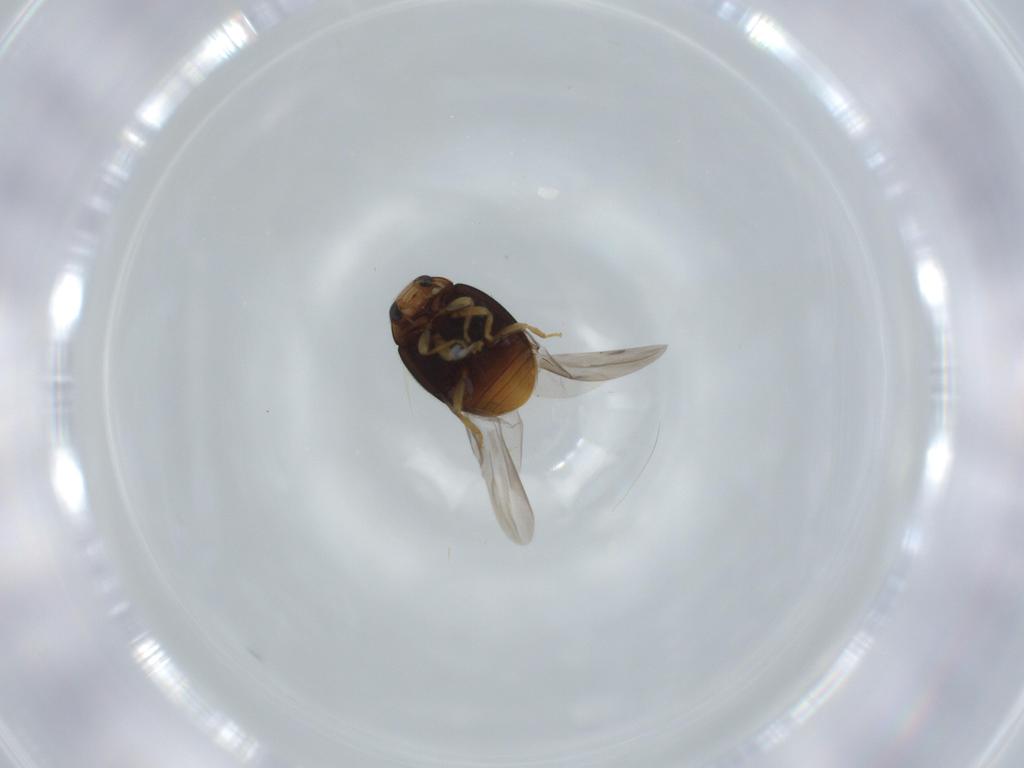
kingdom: Animalia
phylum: Arthropoda
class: Insecta
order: Coleoptera
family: Coccinellidae
